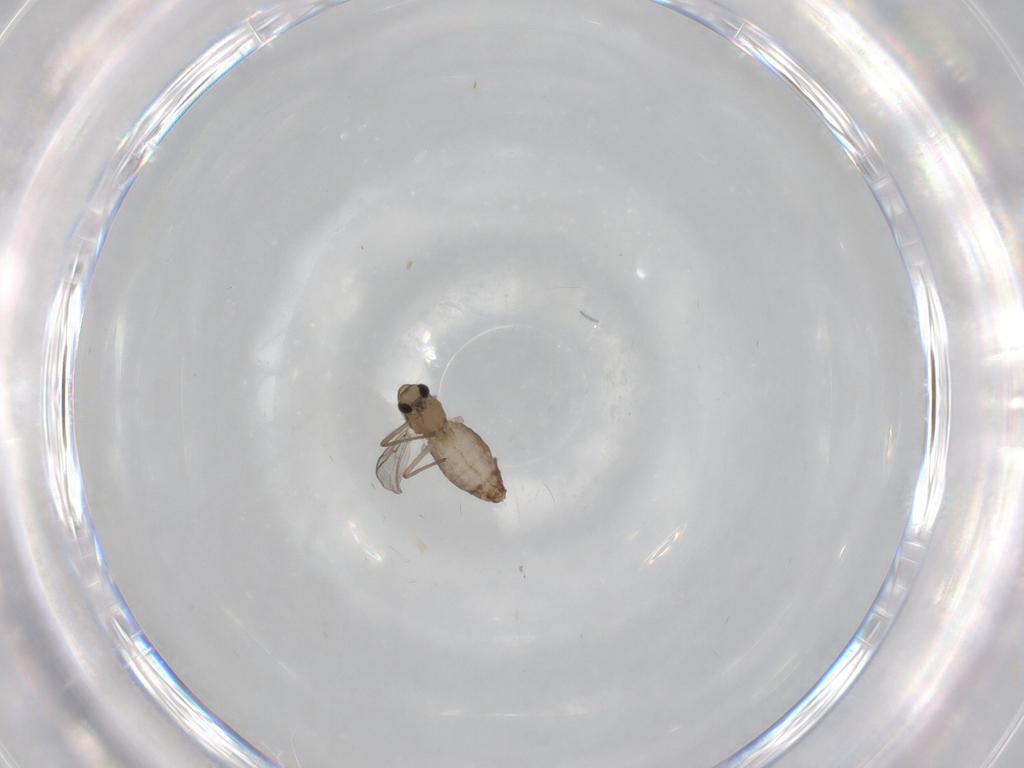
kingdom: Animalia
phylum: Arthropoda
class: Insecta
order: Diptera
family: Chironomidae
